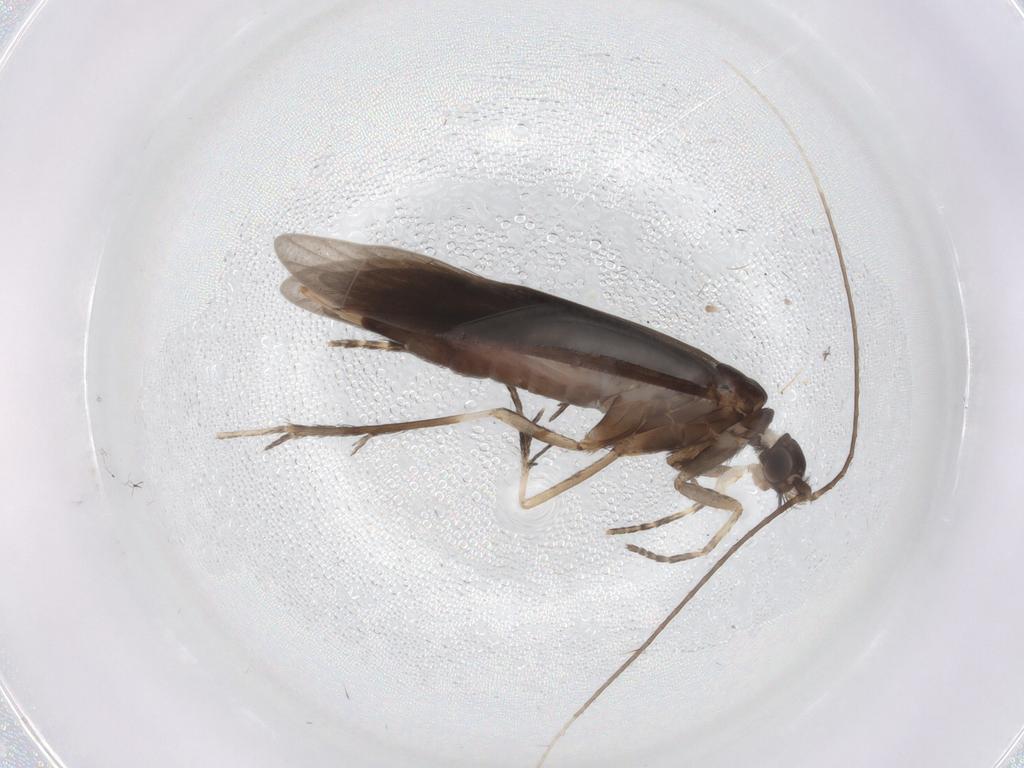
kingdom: Animalia
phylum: Arthropoda
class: Insecta
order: Trichoptera
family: Xiphocentronidae
